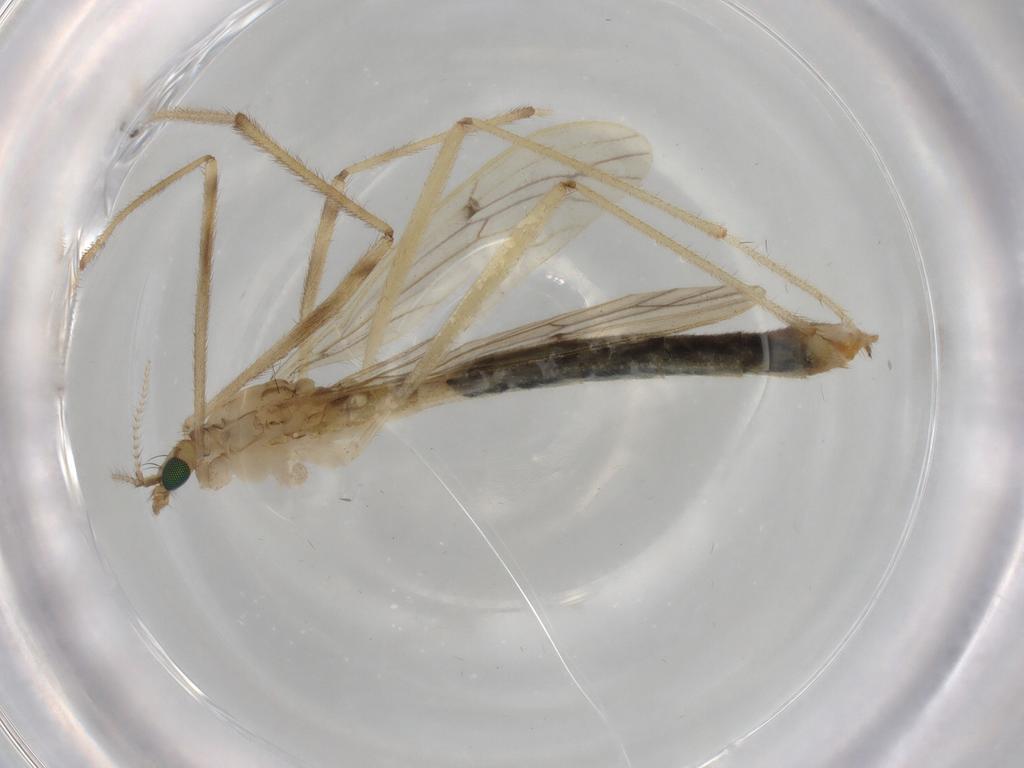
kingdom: Animalia
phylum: Arthropoda
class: Insecta
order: Diptera
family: Limoniidae
